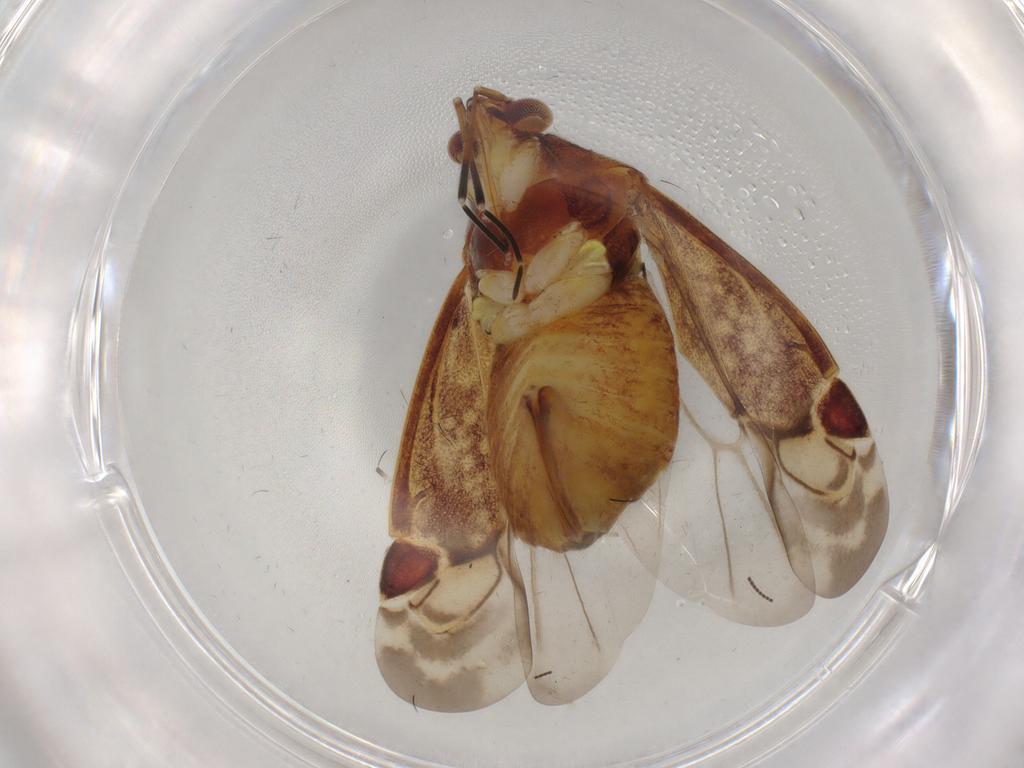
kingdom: Animalia
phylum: Arthropoda
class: Insecta
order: Hemiptera
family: Miridae
